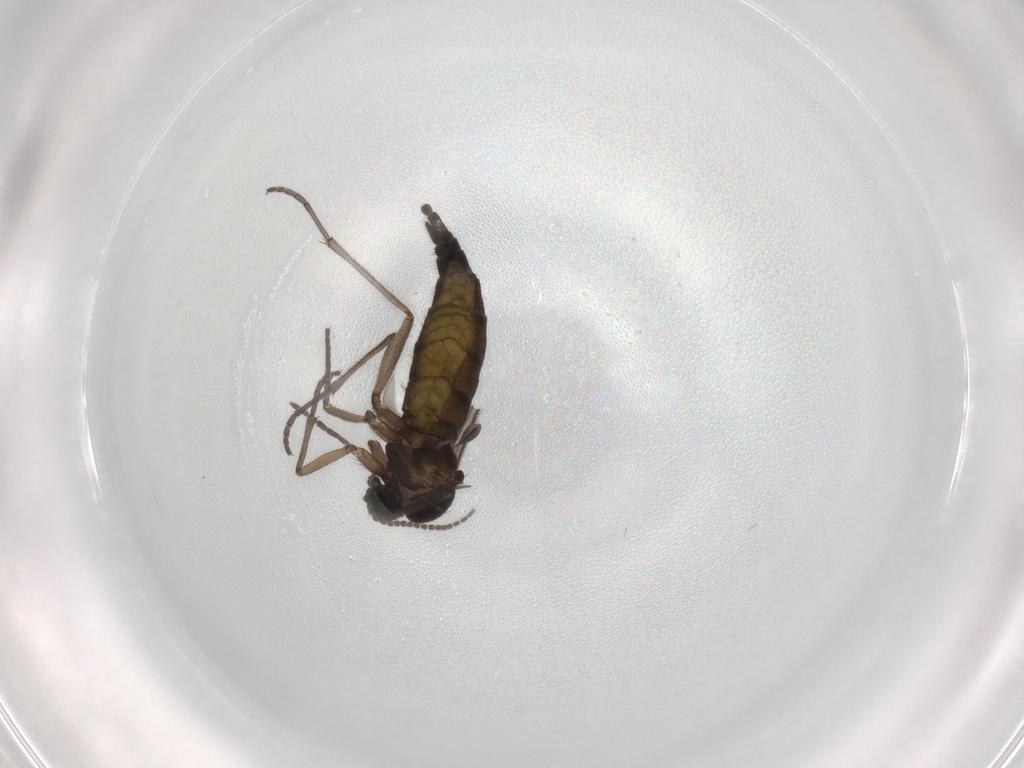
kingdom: Animalia
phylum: Arthropoda
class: Insecta
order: Diptera
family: Sciaridae
